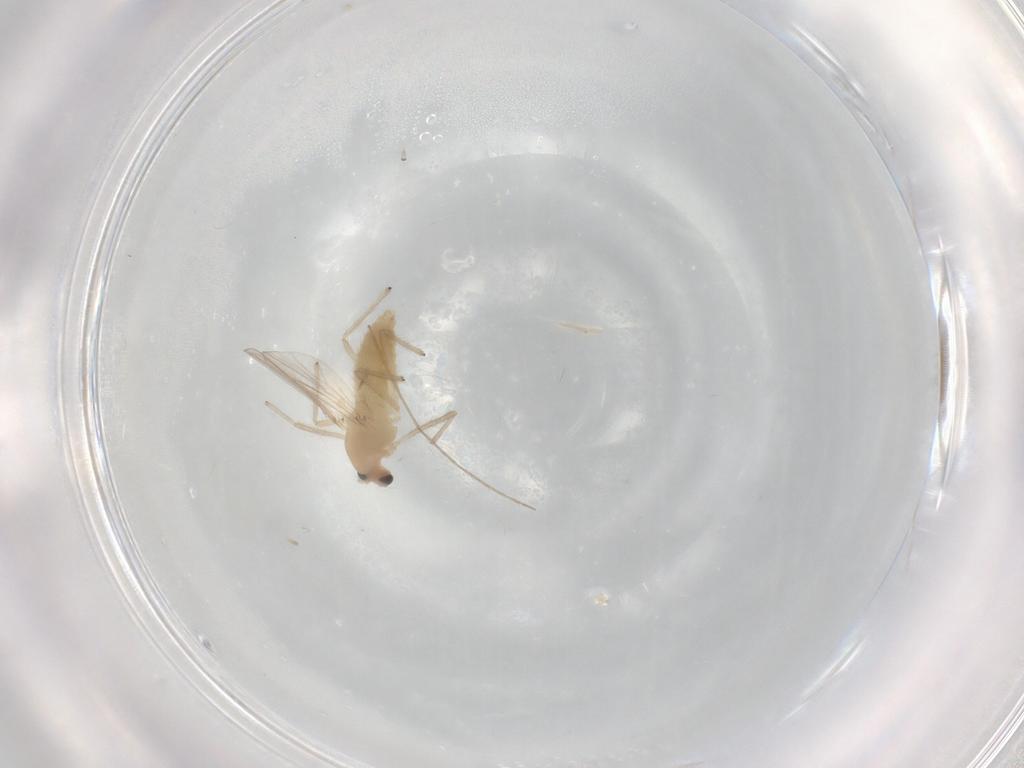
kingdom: Animalia
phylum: Arthropoda
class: Insecta
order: Diptera
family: Chironomidae
